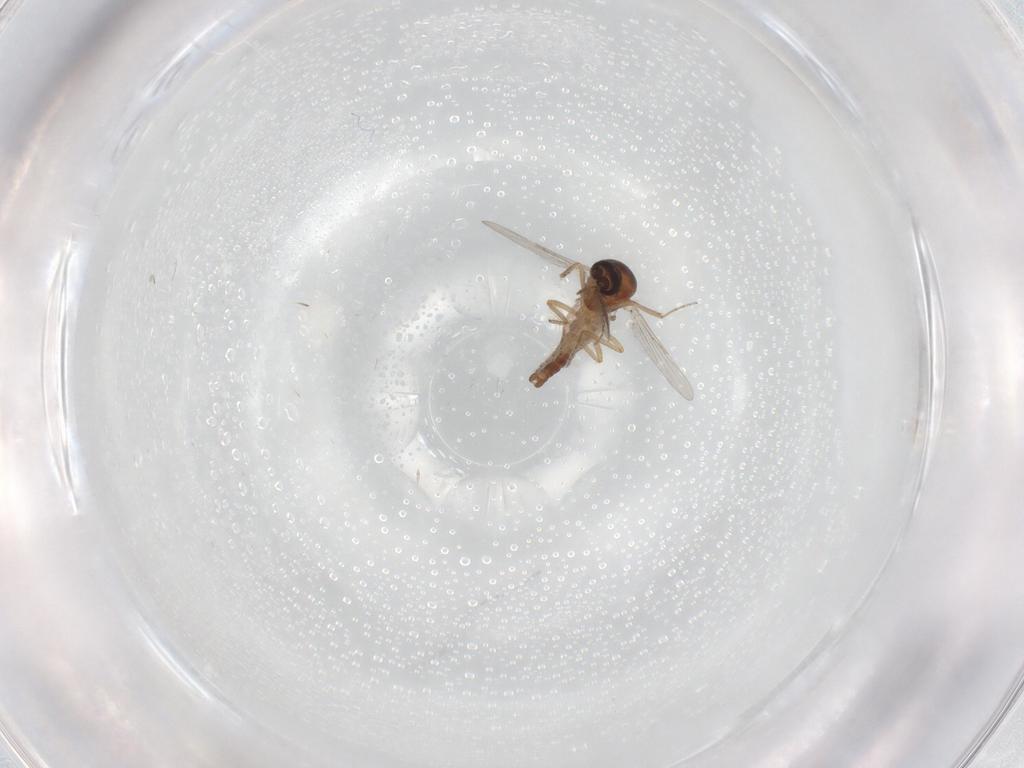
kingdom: Animalia
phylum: Arthropoda
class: Insecta
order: Diptera
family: Ceratopogonidae
